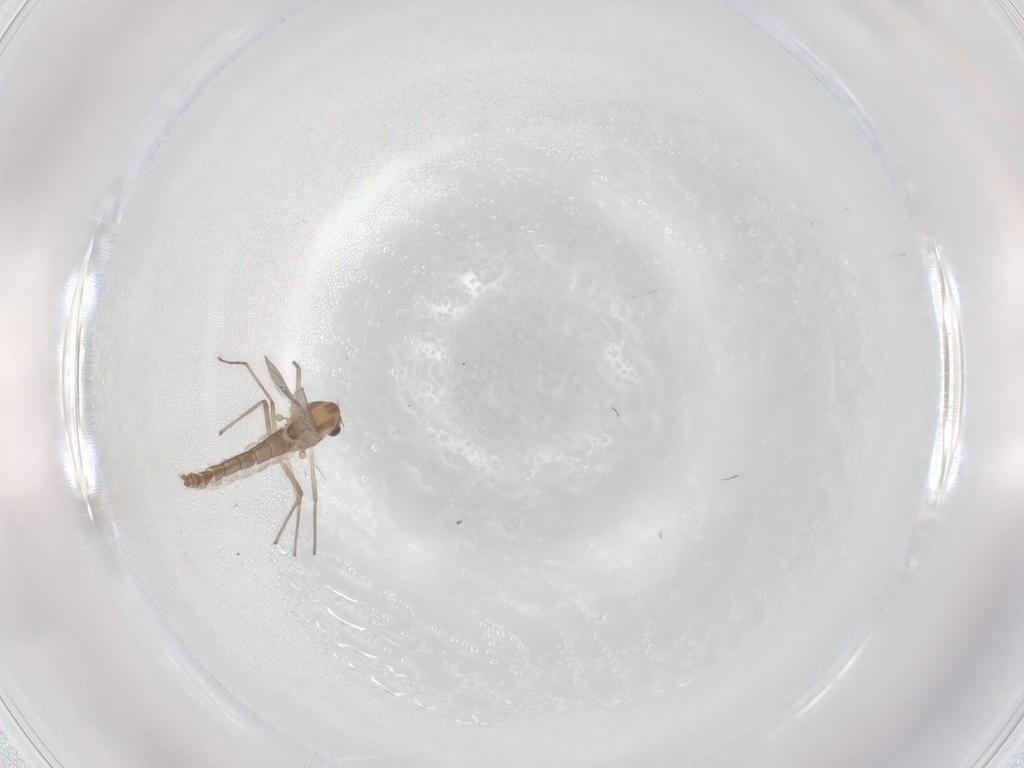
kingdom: Animalia
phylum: Arthropoda
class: Insecta
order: Diptera
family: Chironomidae
